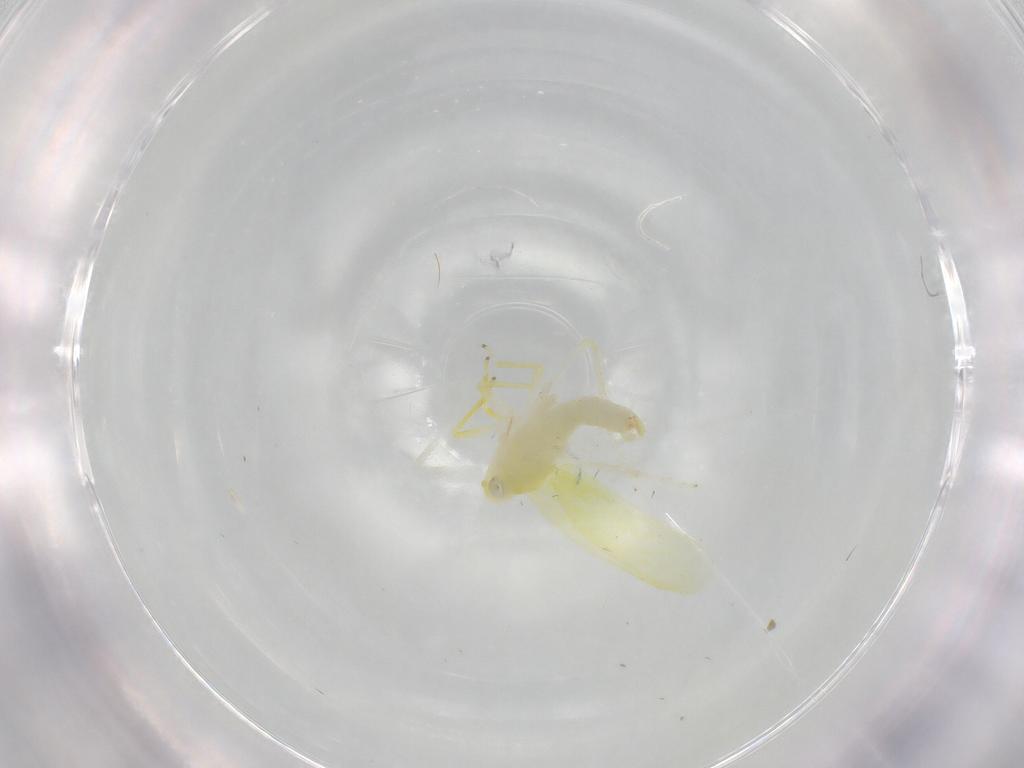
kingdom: Animalia
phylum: Arthropoda
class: Insecta
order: Hemiptera
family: Cicadellidae
